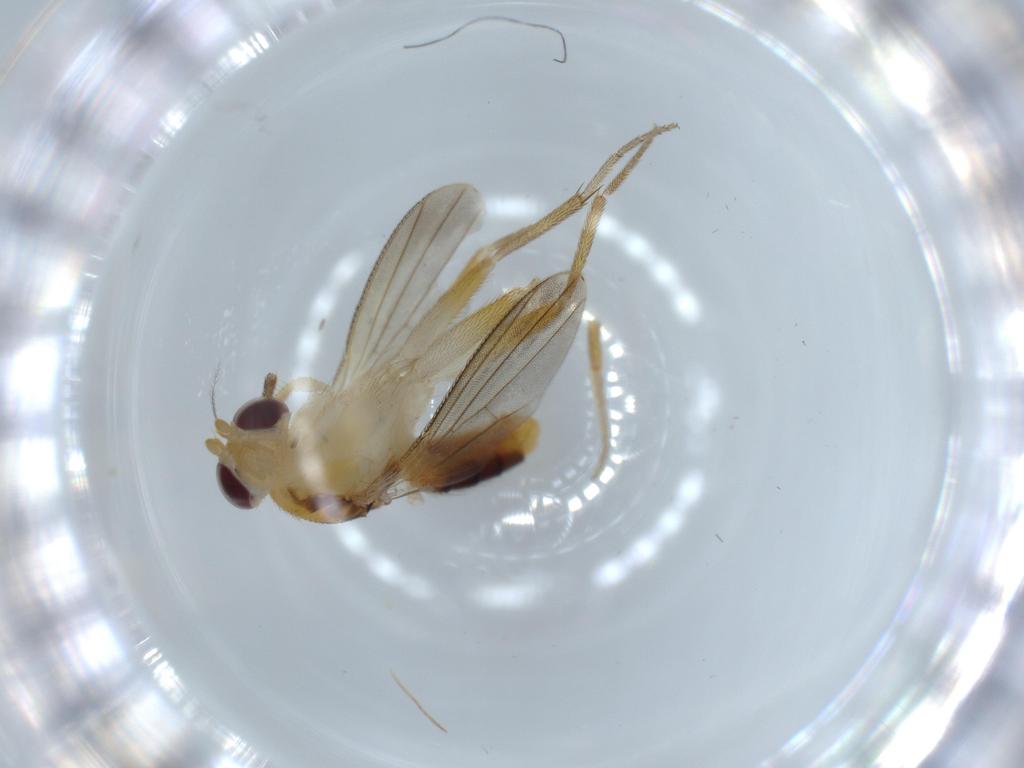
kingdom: Animalia
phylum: Arthropoda
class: Insecta
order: Diptera
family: Agromyzidae
